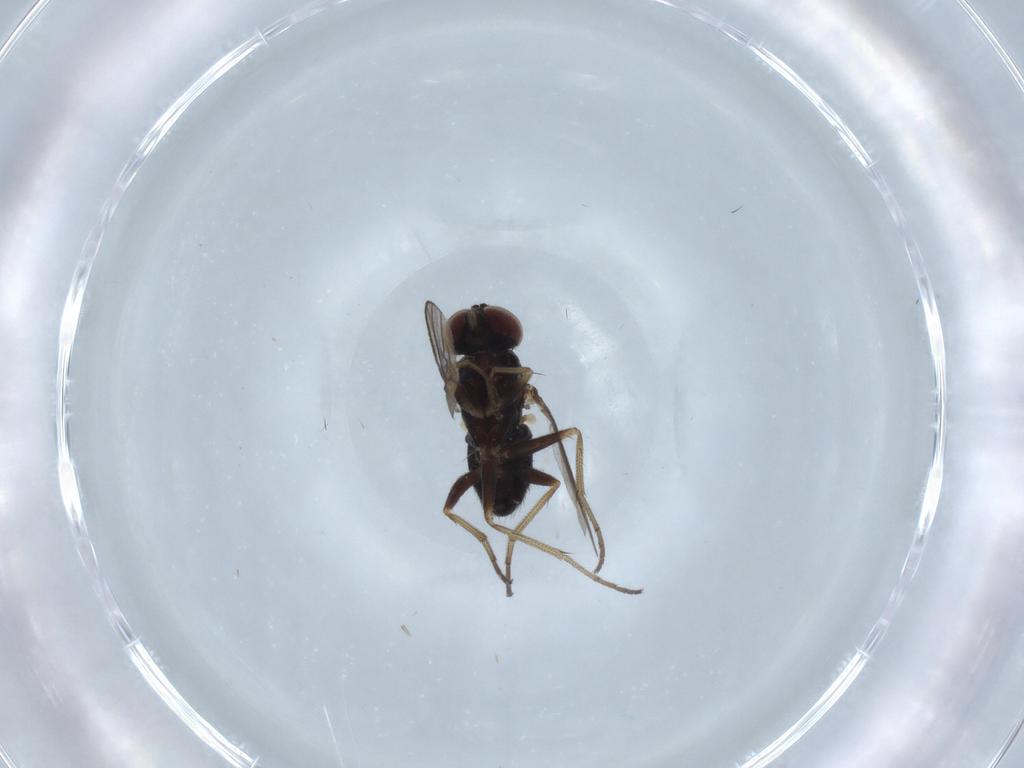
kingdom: Animalia
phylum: Arthropoda
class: Insecta
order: Diptera
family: Dolichopodidae
